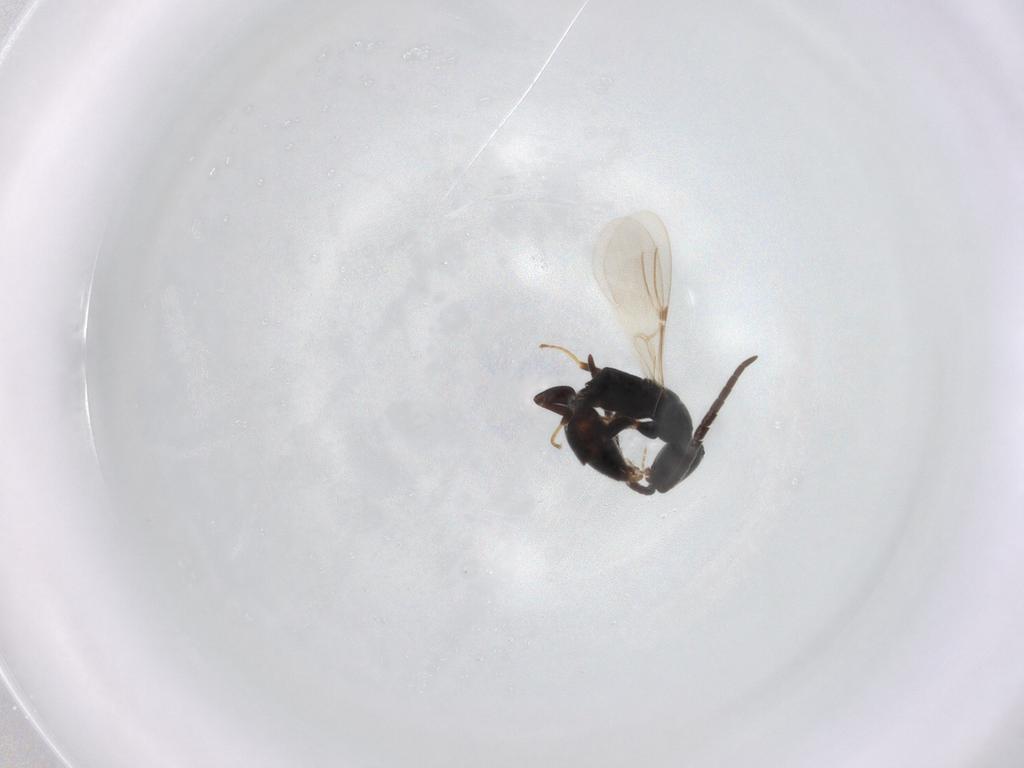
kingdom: Animalia
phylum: Arthropoda
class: Insecta
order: Hymenoptera
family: Bethylidae
